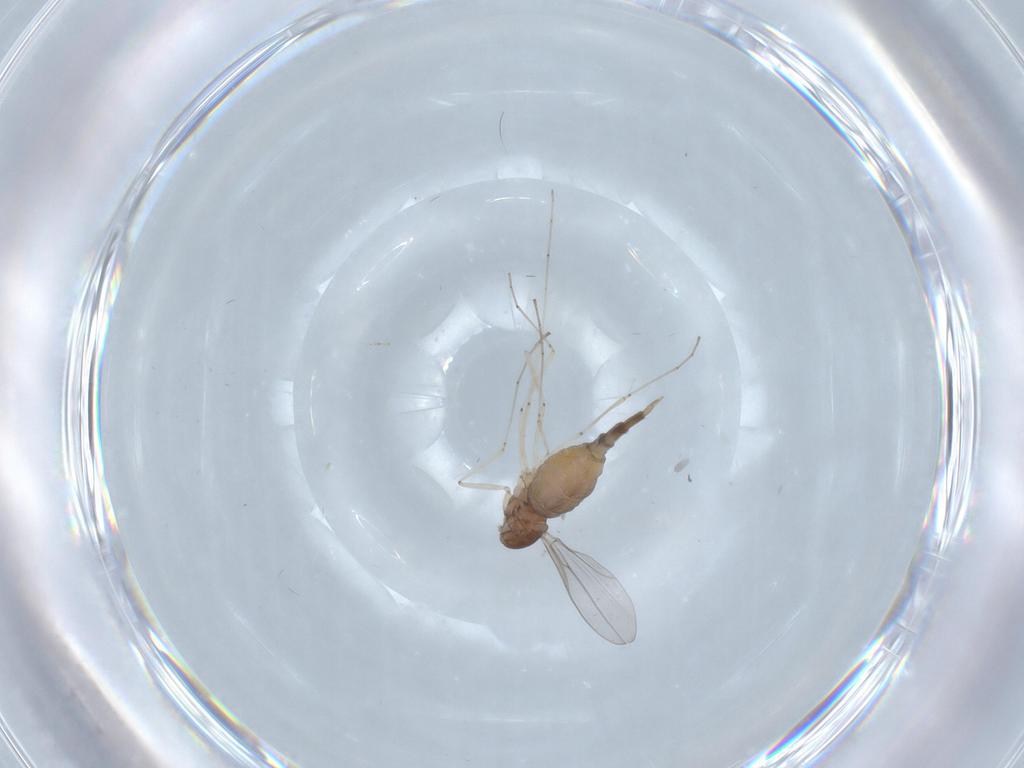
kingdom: Animalia
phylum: Arthropoda
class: Insecta
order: Diptera
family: Cecidomyiidae
